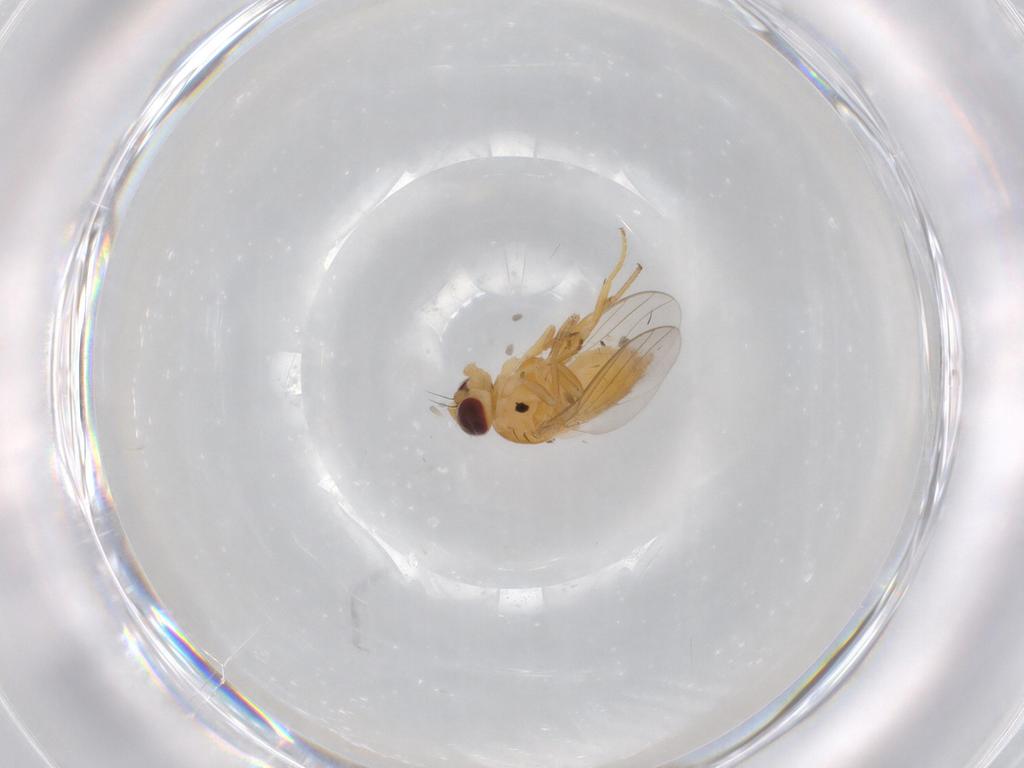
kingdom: Animalia
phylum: Arthropoda
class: Insecta
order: Diptera
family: Chloropidae
